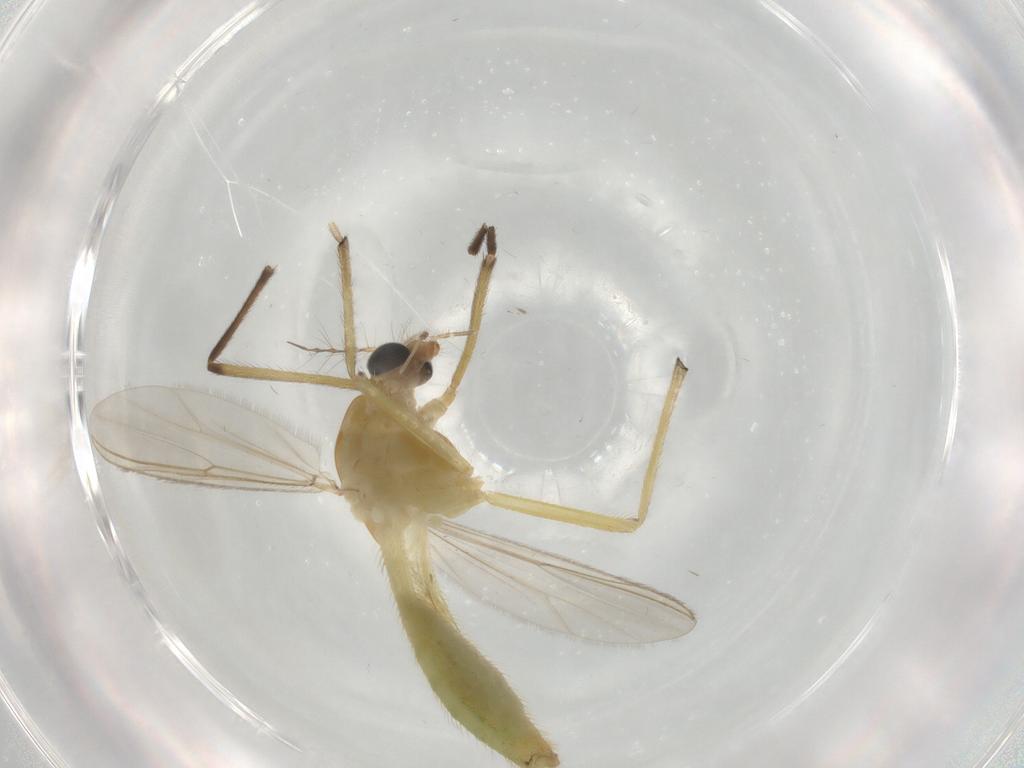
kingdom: Animalia
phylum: Arthropoda
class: Insecta
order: Diptera
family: Chironomidae
